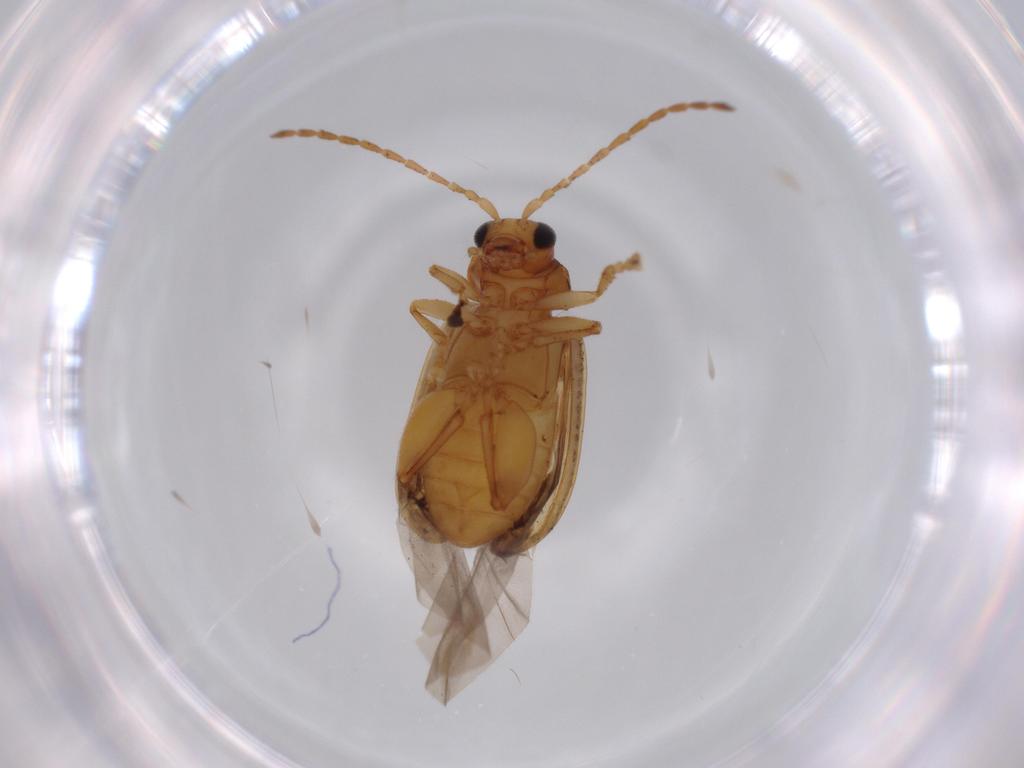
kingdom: Animalia
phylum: Arthropoda
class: Insecta
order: Coleoptera
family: Chrysomelidae
